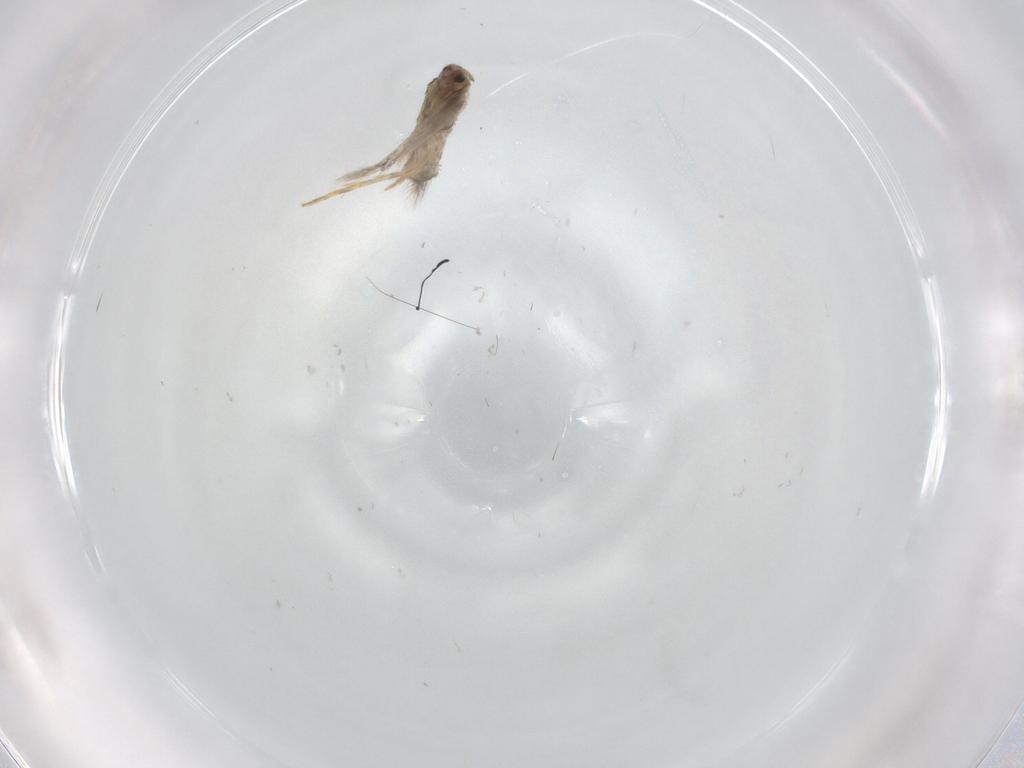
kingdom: Animalia
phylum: Arthropoda
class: Insecta
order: Lepidoptera
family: Nepticulidae
